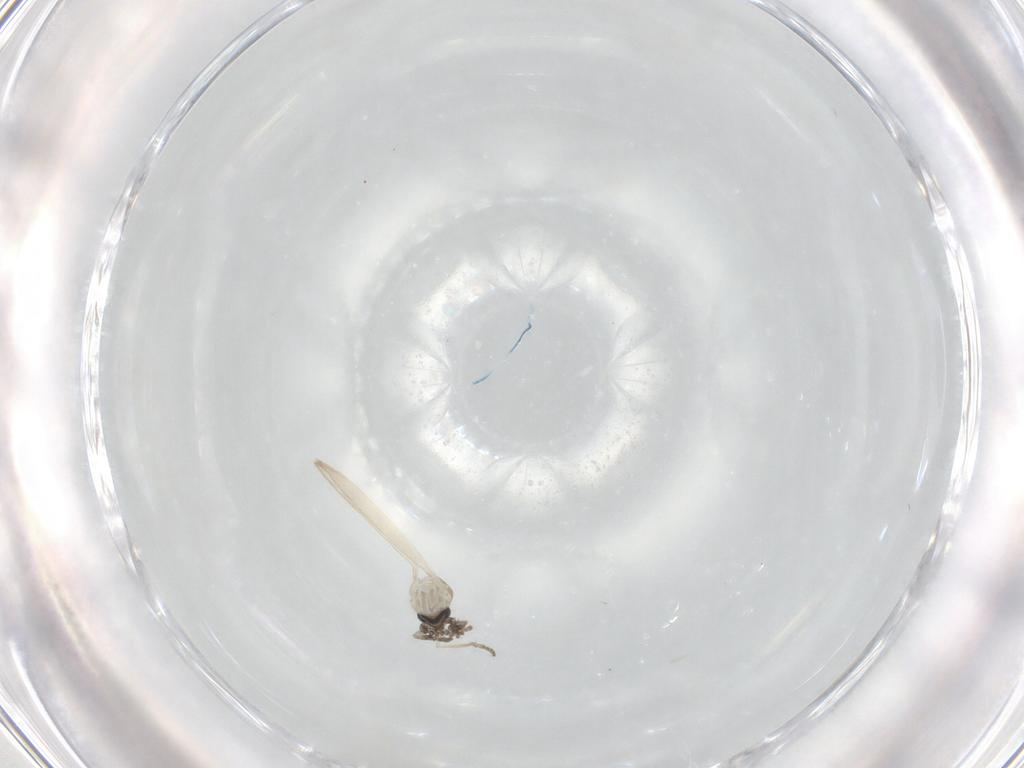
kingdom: Animalia
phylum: Arthropoda
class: Insecta
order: Diptera
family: Psychodidae
